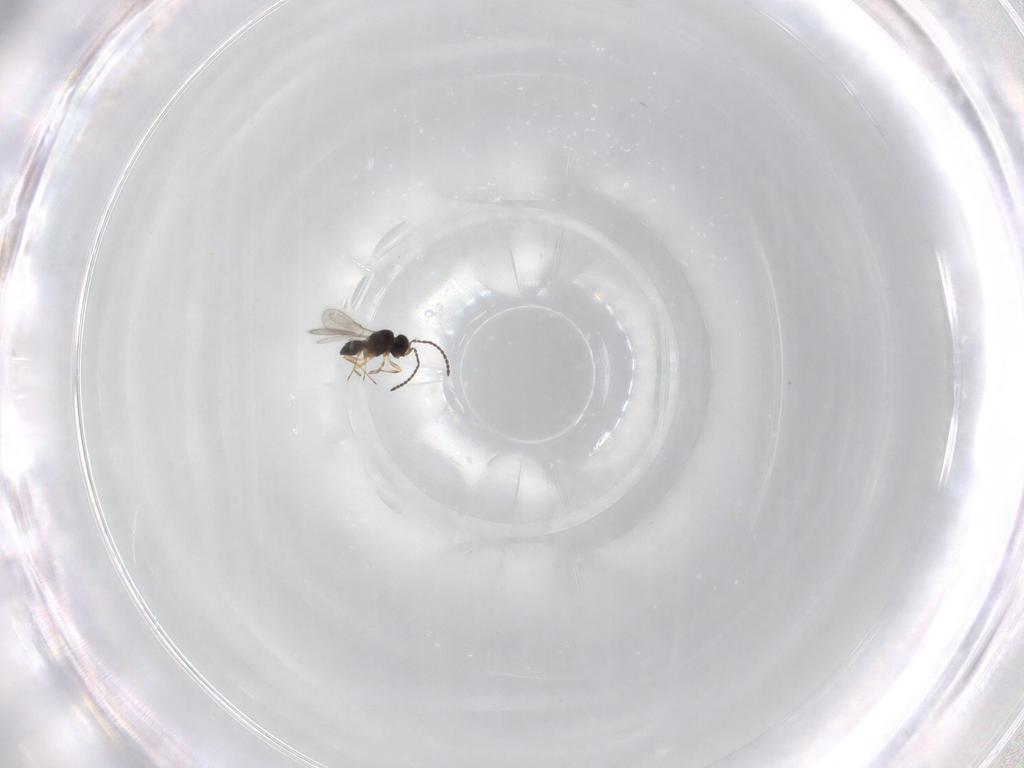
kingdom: Animalia
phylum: Arthropoda
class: Insecta
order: Hymenoptera
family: Scelionidae
